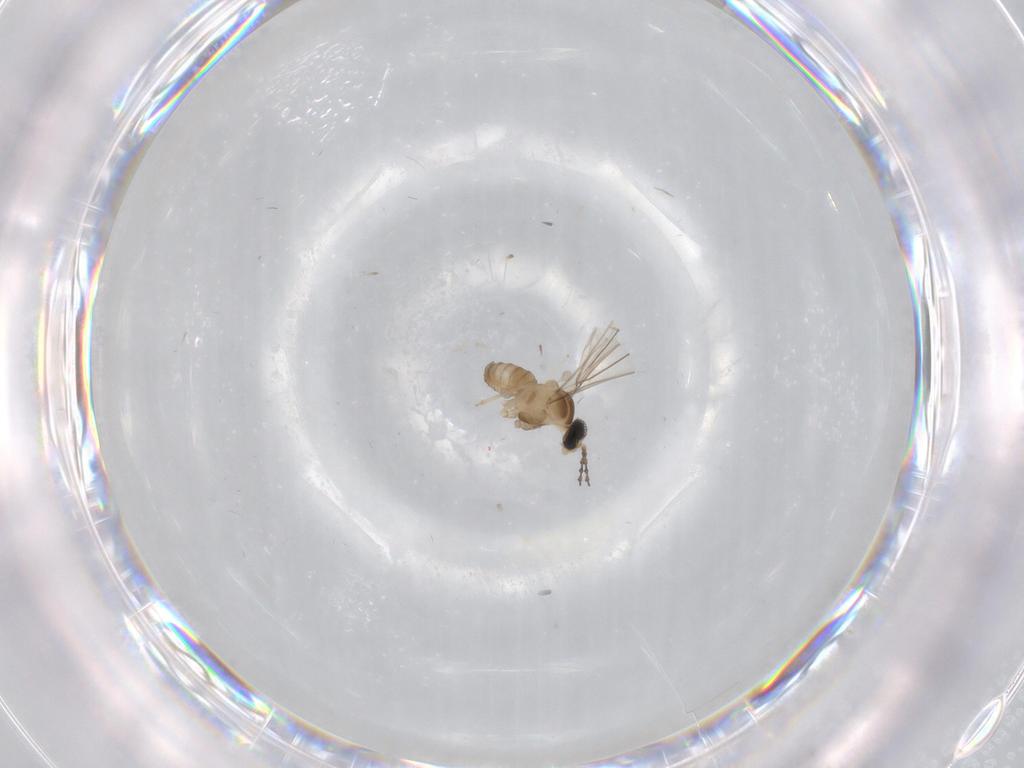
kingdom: Animalia
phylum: Arthropoda
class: Insecta
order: Diptera
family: Cecidomyiidae
